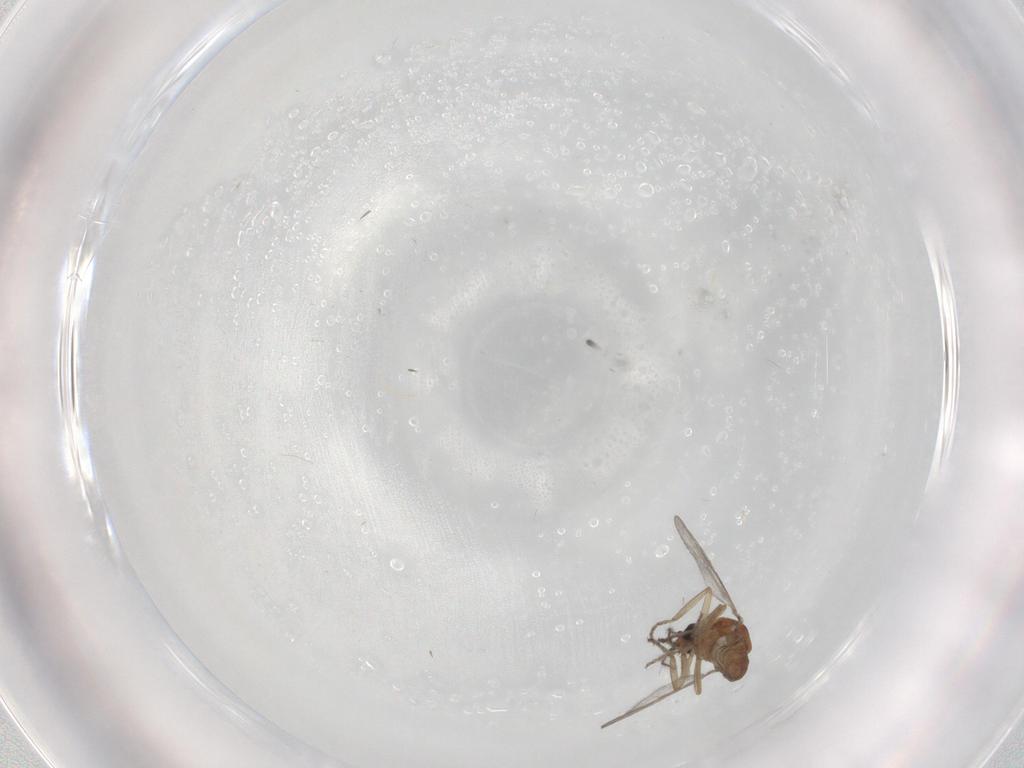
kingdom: Animalia
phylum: Arthropoda
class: Insecta
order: Diptera
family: Ceratopogonidae
